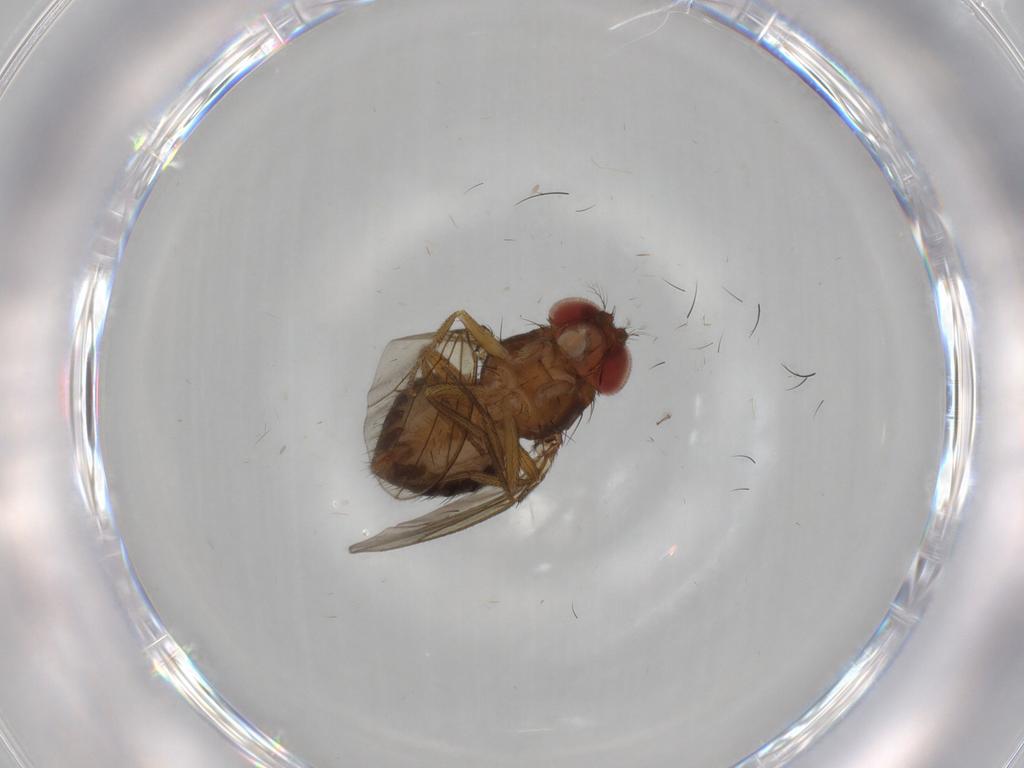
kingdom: Animalia
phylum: Arthropoda
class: Insecta
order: Diptera
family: Drosophilidae
